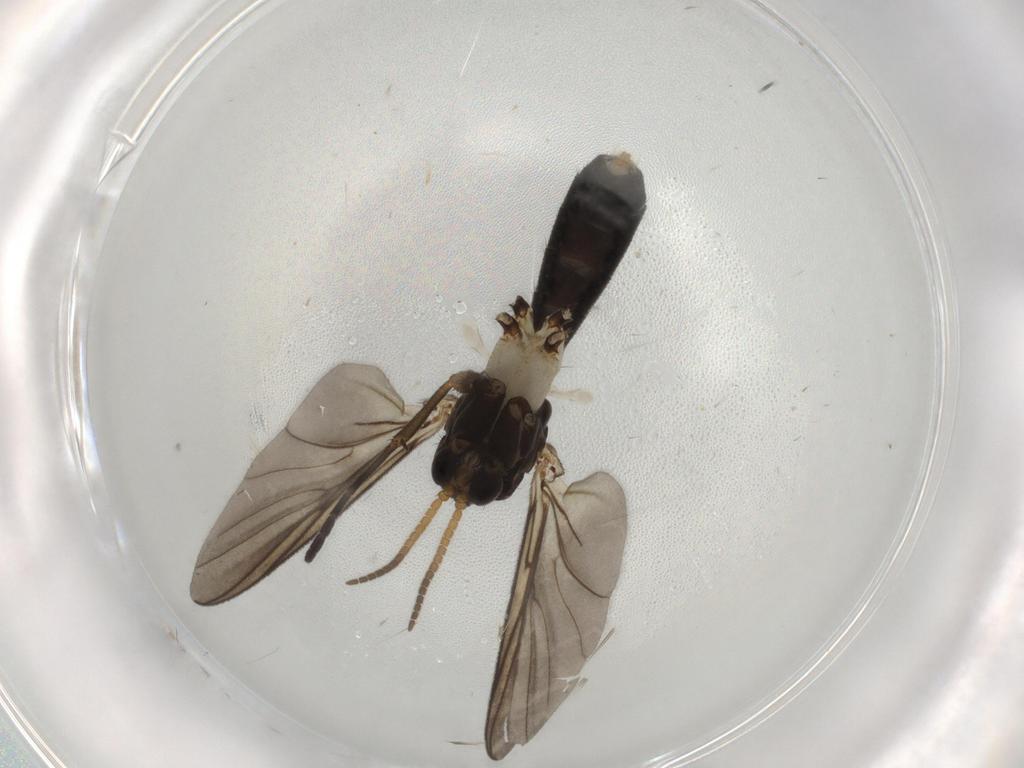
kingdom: Animalia
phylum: Arthropoda
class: Insecta
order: Diptera
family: Mycetophilidae
